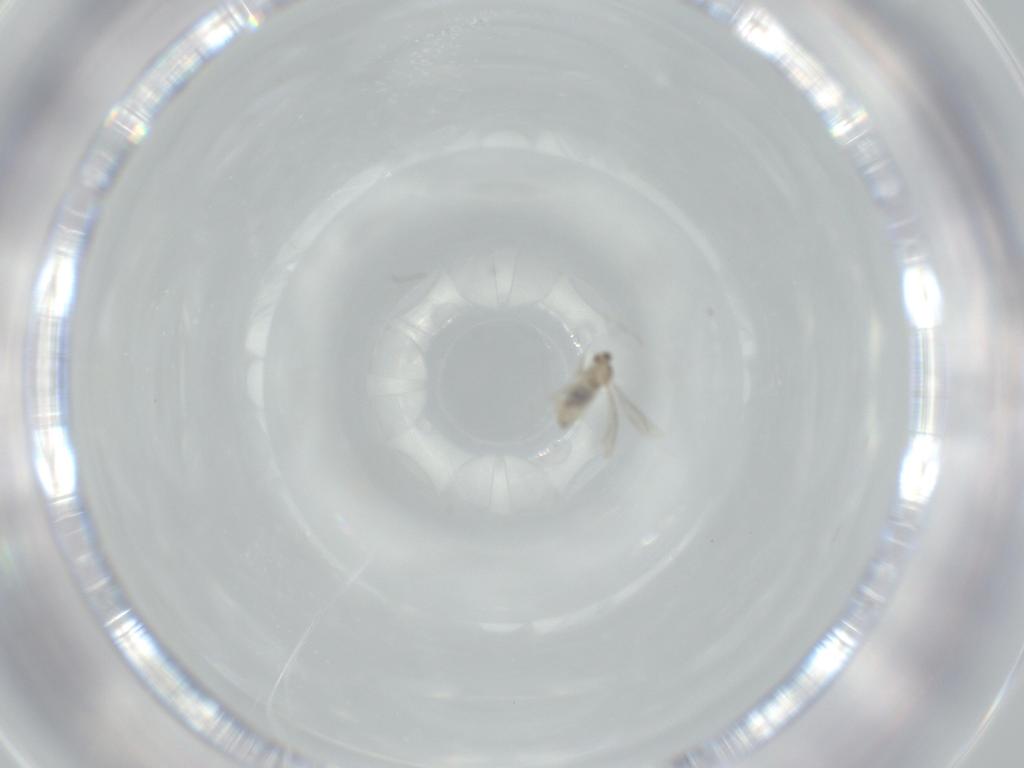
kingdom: Animalia
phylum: Arthropoda
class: Insecta
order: Diptera
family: Cecidomyiidae
